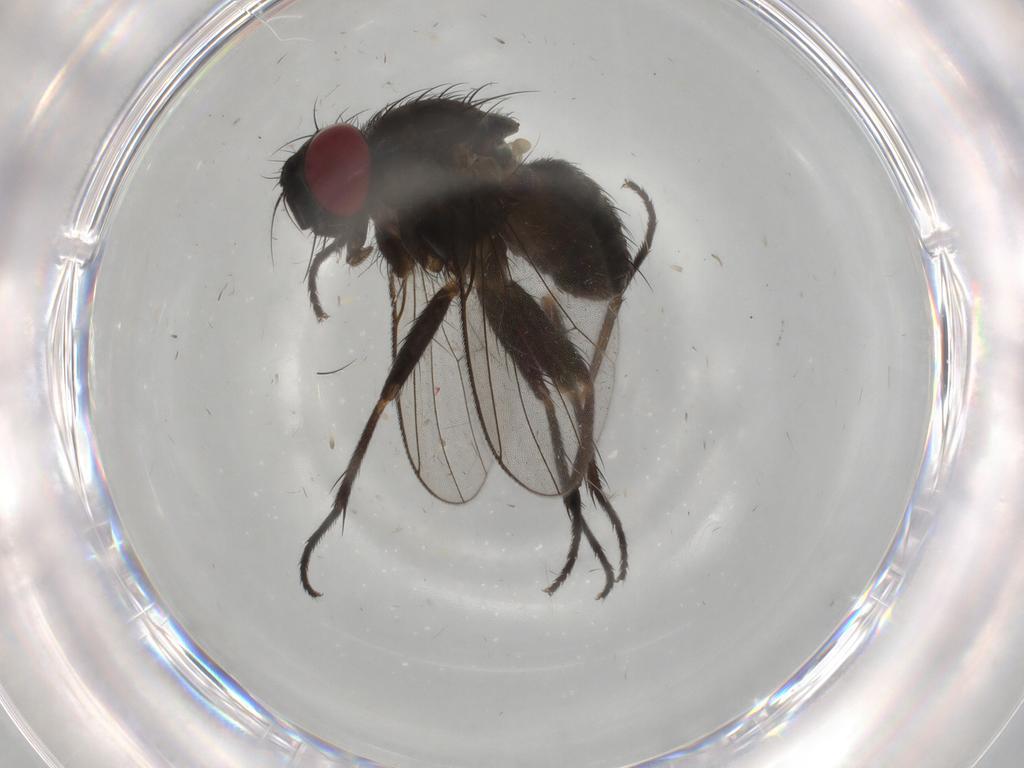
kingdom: Animalia
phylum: Arthropoda
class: Insecta
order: Diptera
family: Muscidae
